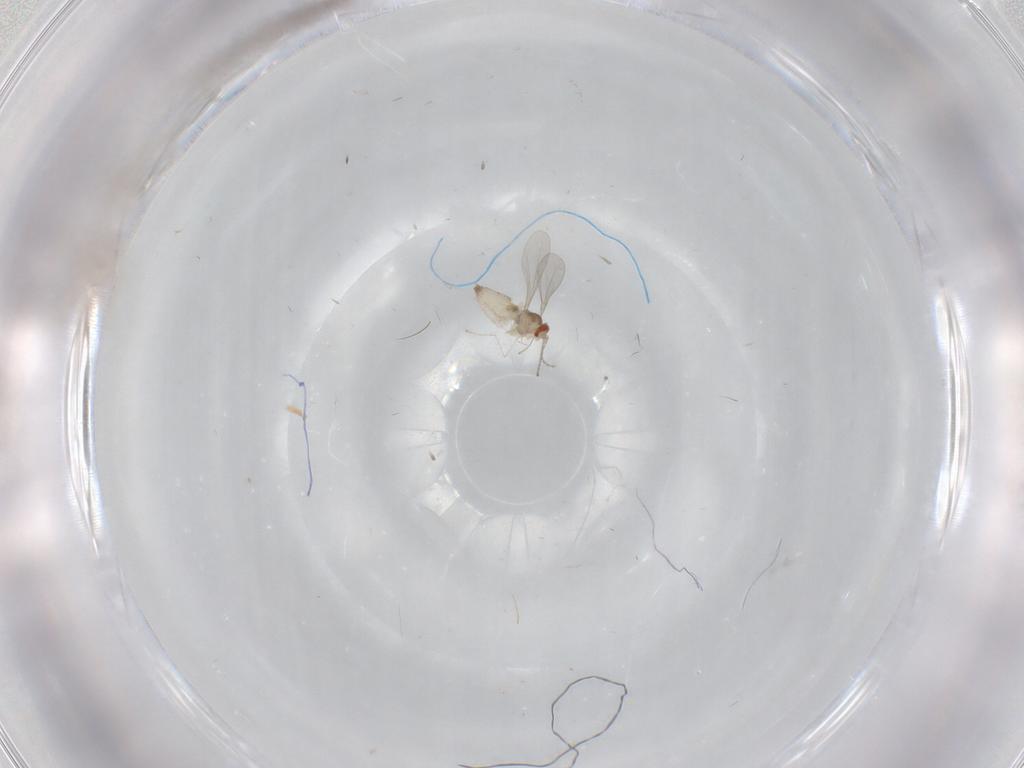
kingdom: Animalia
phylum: Arthropoda
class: Insecta
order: Diptera
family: Cecidomyiidae
